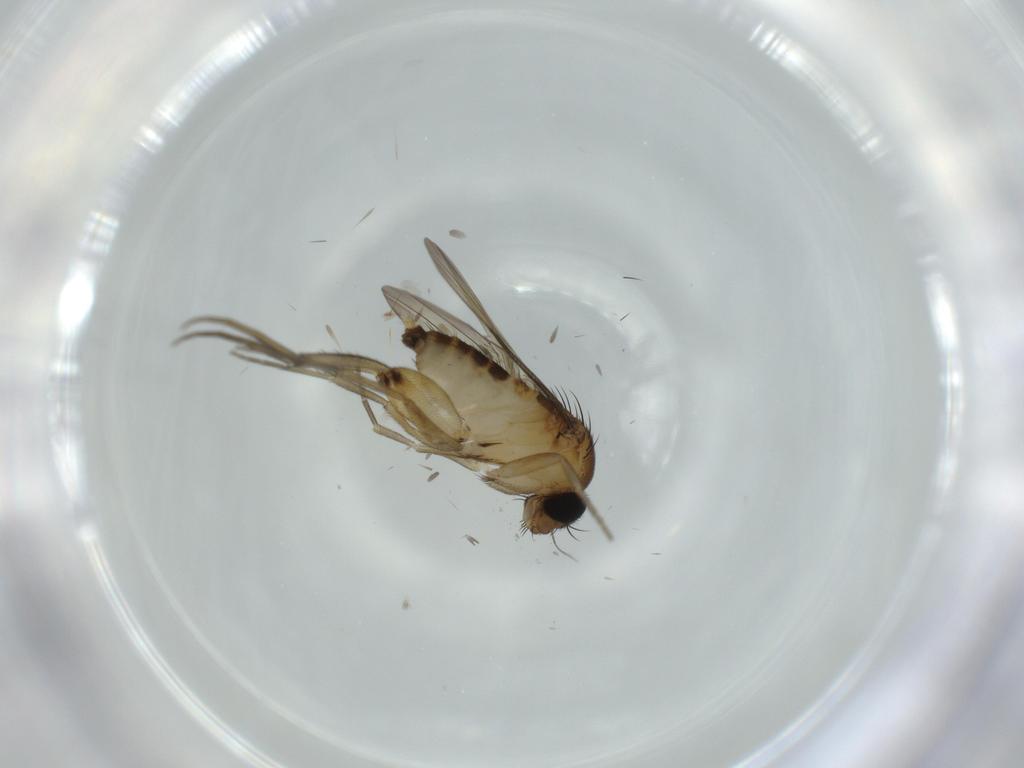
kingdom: Animalia
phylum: Arthropoda
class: Insecta
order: Diptera
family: Phoridae
